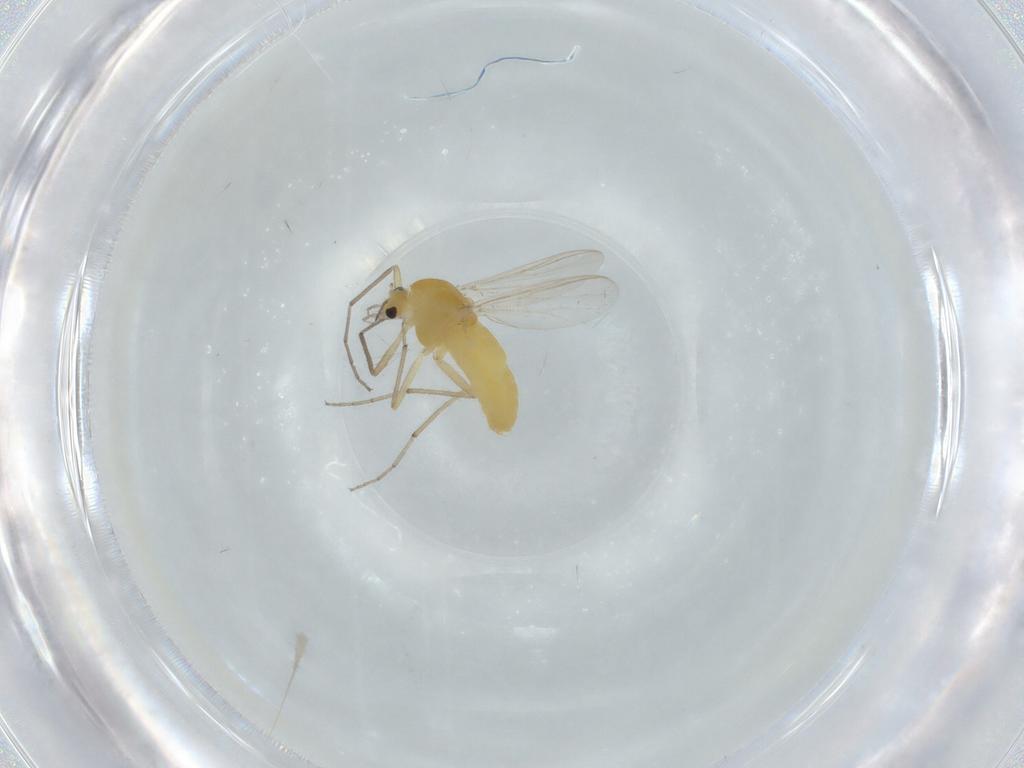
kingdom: Animalia
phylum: Arthropoda
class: Insecta
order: Diptera
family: Chironomidae
